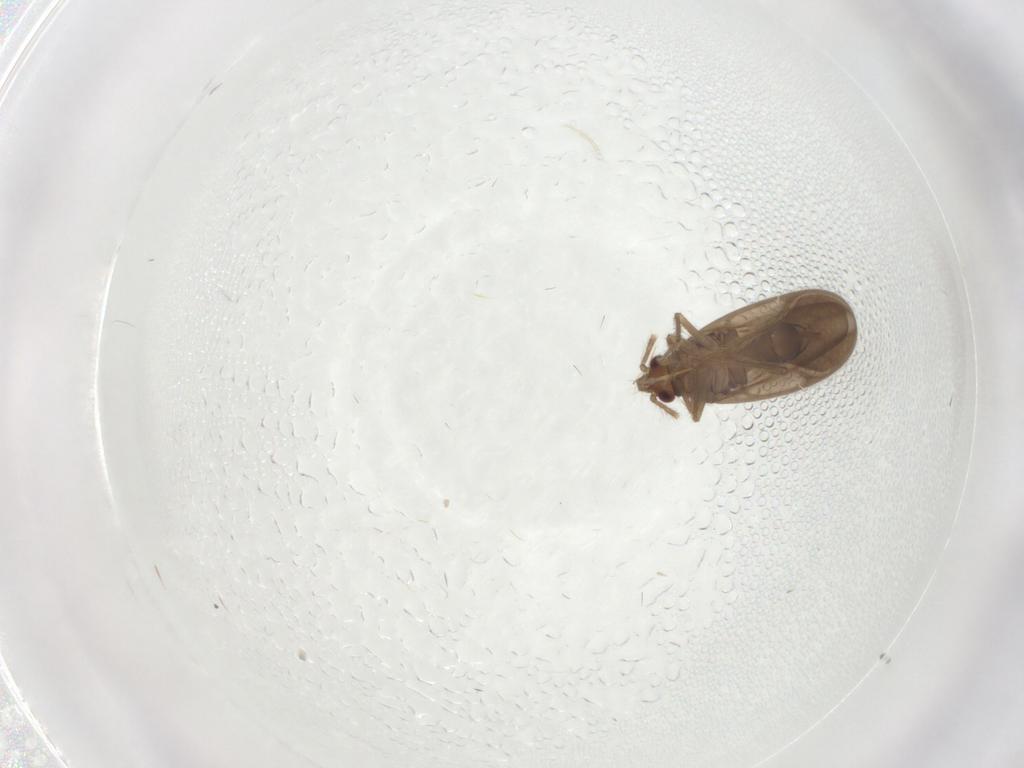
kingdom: Animalia
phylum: Arthropoda
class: Insecta
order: Hemiptera
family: Ceratocombidae
